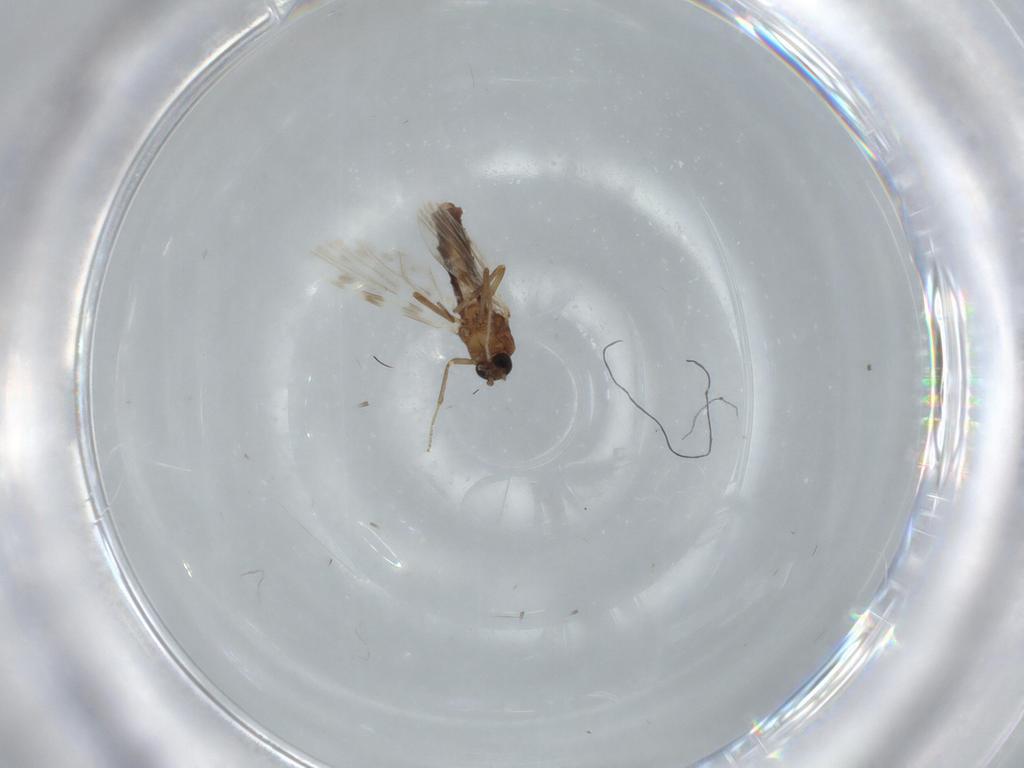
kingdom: Animalia
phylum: Arthropoda
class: Insecta
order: Diptera
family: Ceratopogonidae
